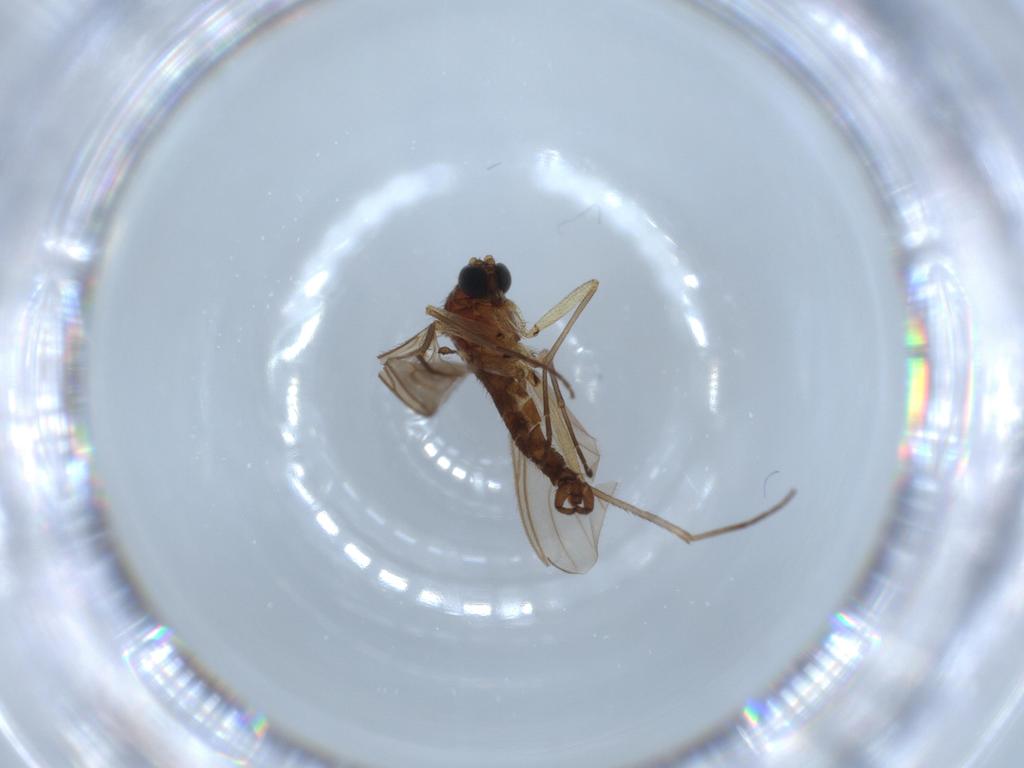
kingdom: Animalia
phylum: Arthropoda
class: Insecta
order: Diptera
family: Sciaridae
